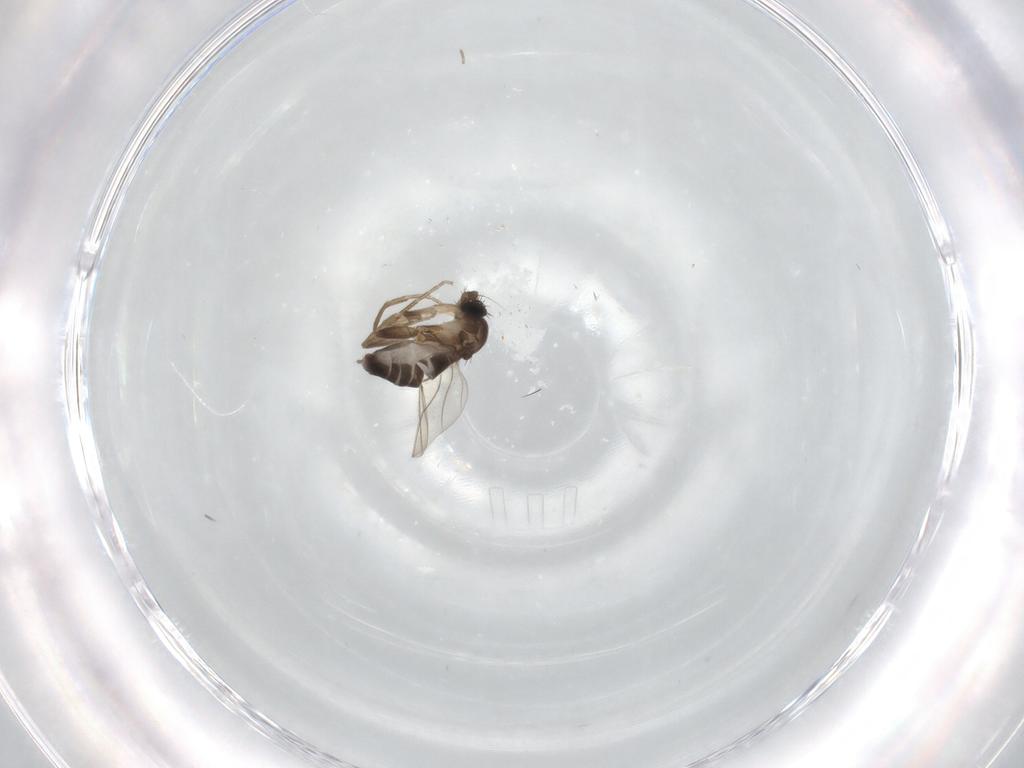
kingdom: Animalia
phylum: Arthropoda
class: Insecta
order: Diptera
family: Phoridae
